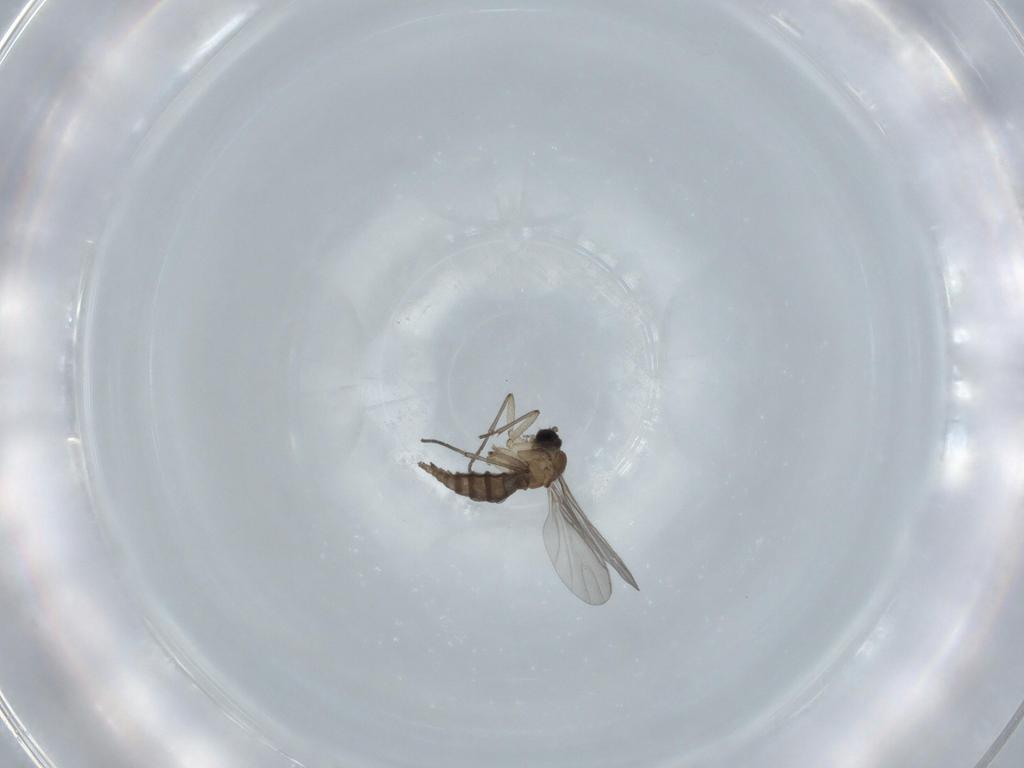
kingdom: Animalia
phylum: Arthropoda
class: Insecta
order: Diptera
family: Sciaridae
